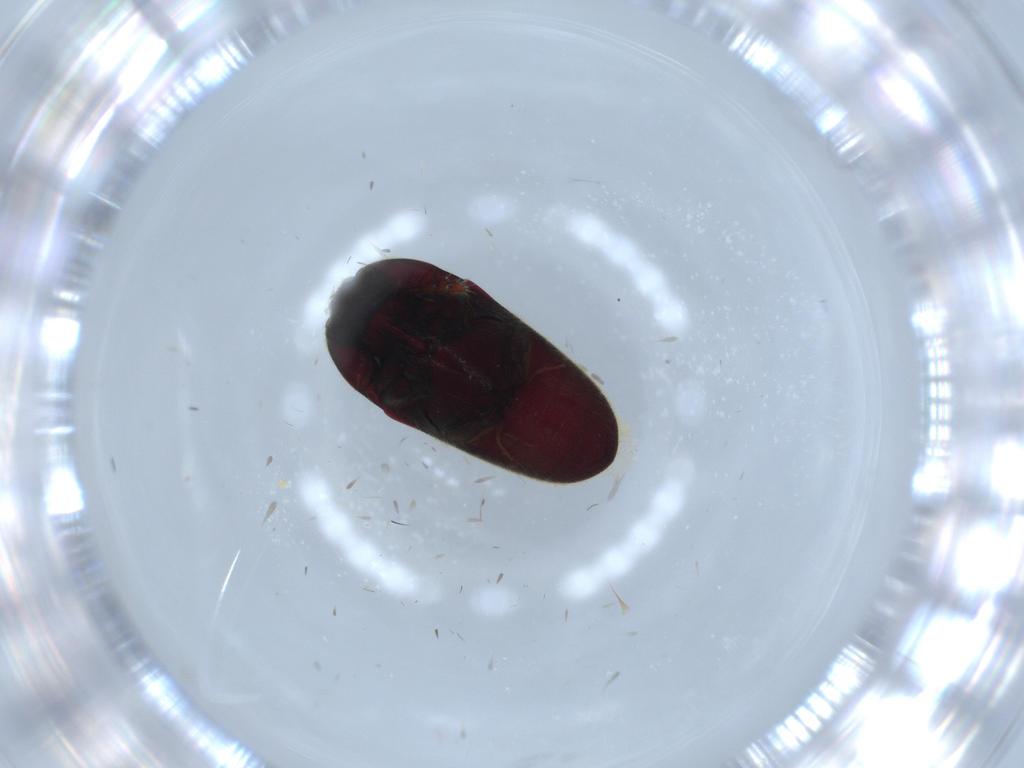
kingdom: Animalia
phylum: Arthropoda
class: Insecta
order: Coleoptera
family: Throscidae
